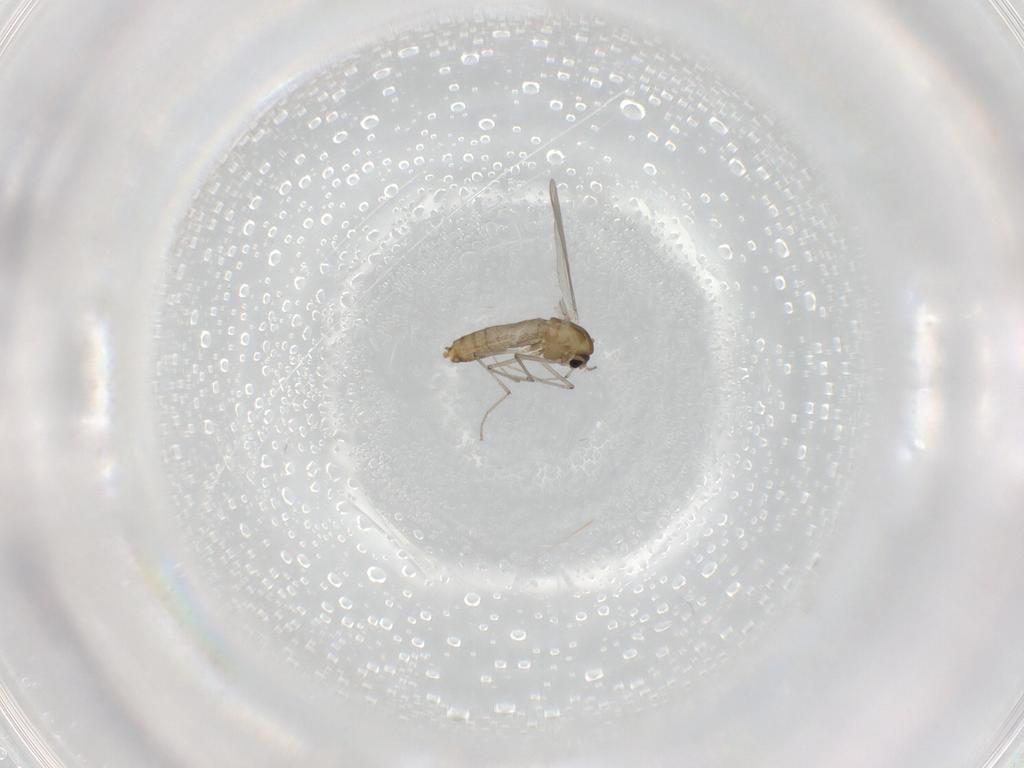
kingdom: Animalia
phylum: Arthropoda
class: Insecta
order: Diptera
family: Chironomidae
